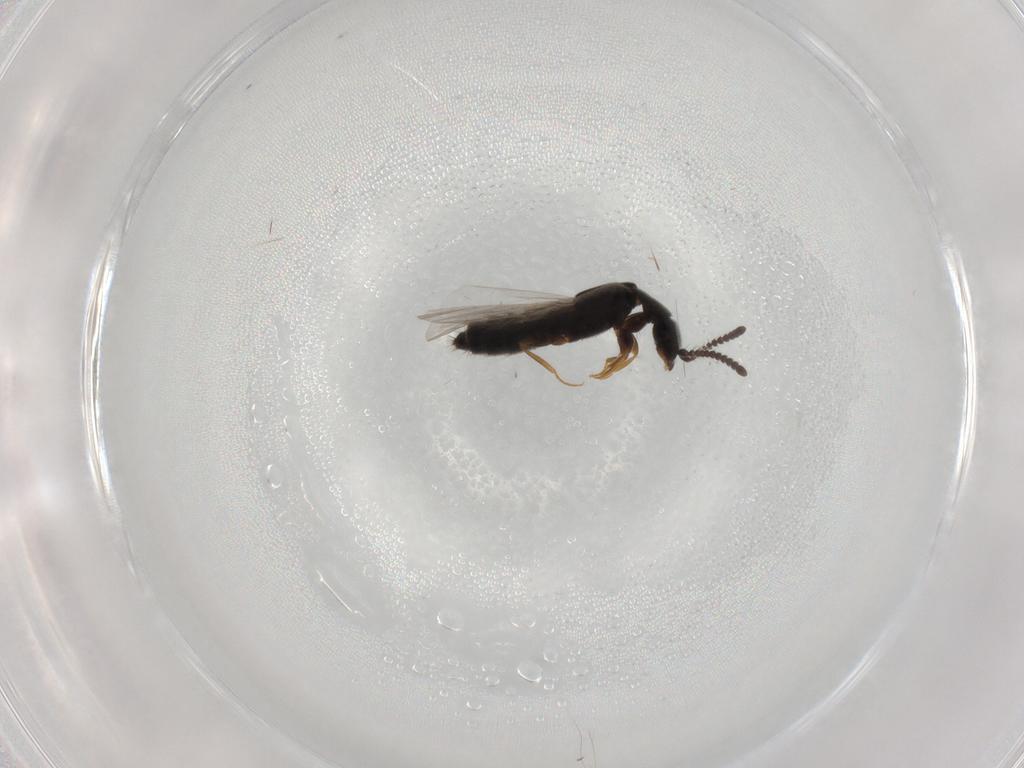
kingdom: Animalia
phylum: Arthropoda
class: Insecta
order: Coleoptera
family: Staphylinidae
